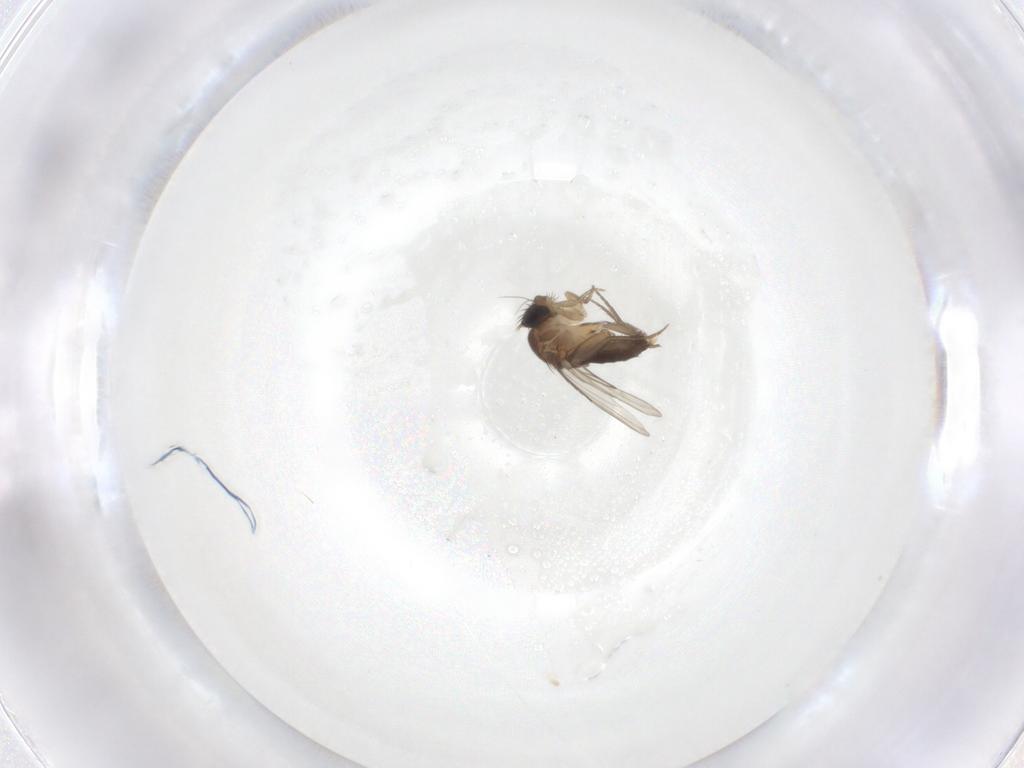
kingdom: Animalia
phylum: Arthropoda
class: Insecta
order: Diptera
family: Phoridae
